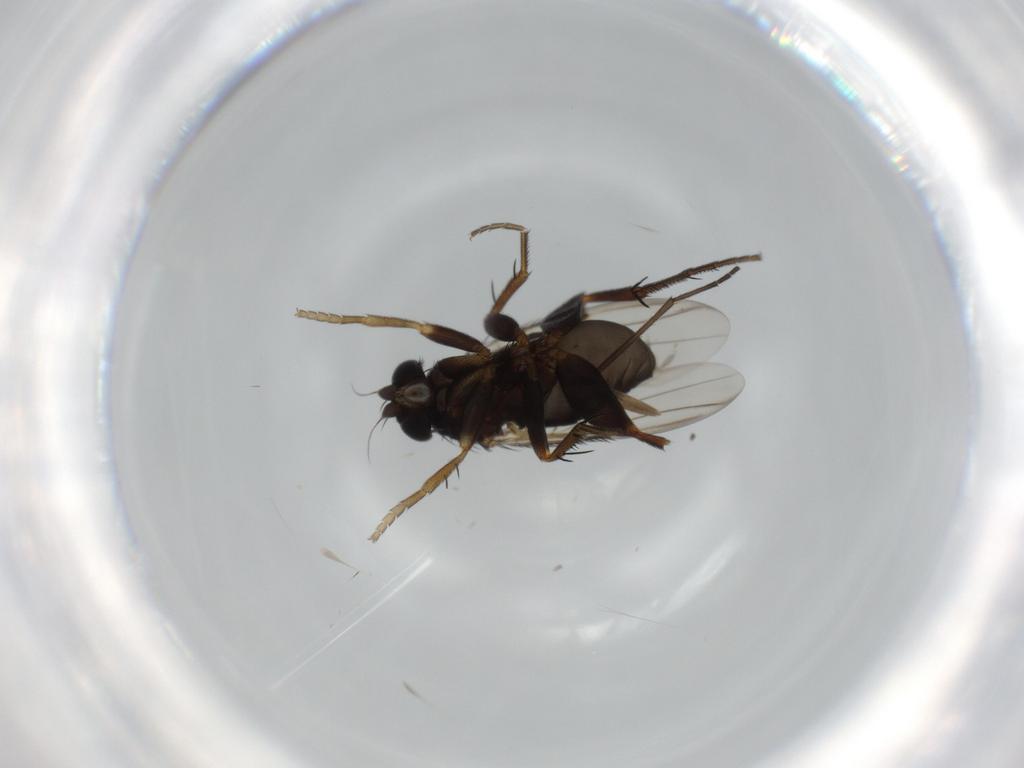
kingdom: Animalia
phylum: Arthropoda
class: Insecta
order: Diptera
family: Phoridae
